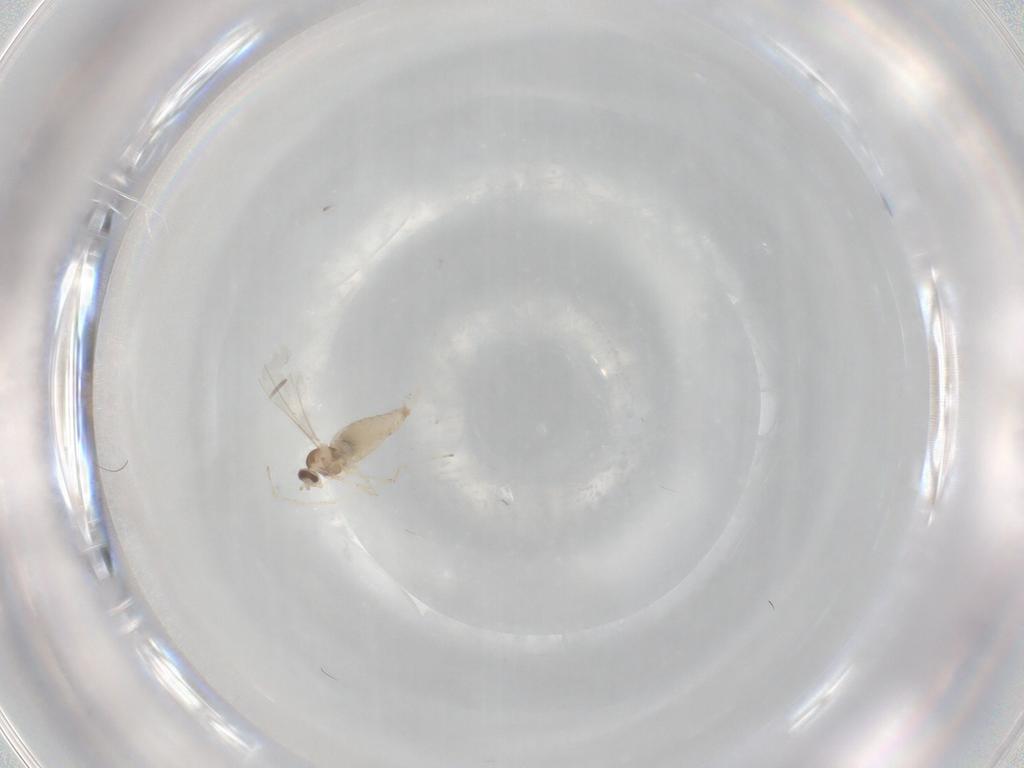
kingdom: Animalia
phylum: Arthropoda
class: Insecta
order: Diptera
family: Cecidomyiidae
